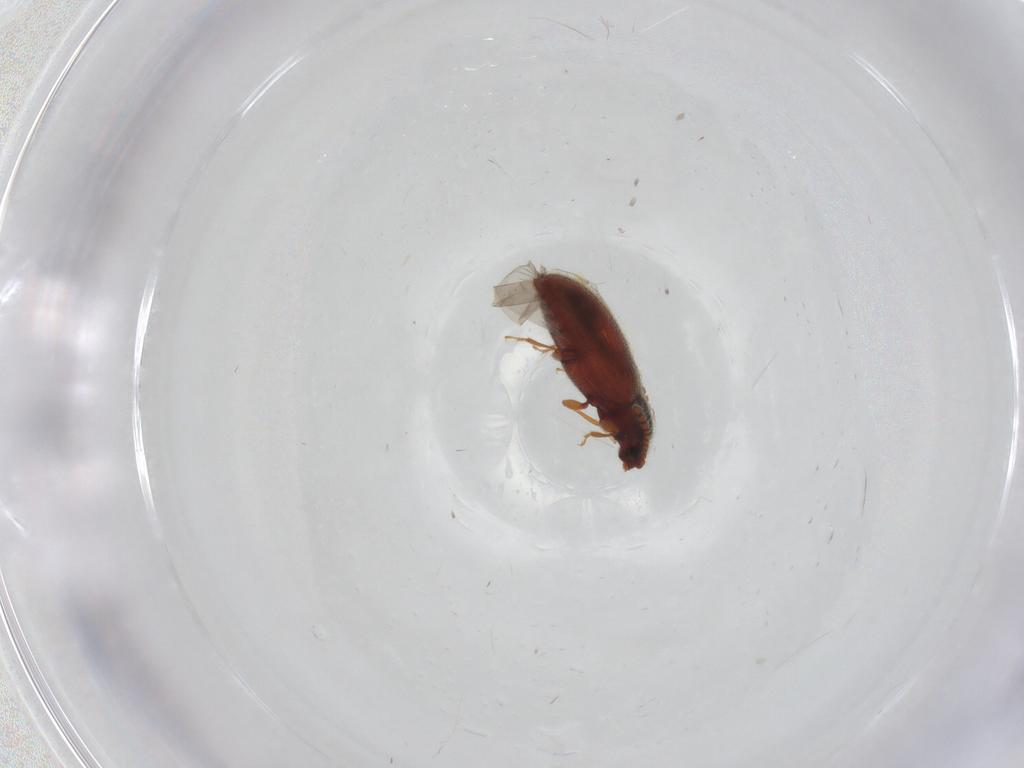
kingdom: Animalia
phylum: Arthropoda
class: Insecta
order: Coleoptera
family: Cryptophagidae
